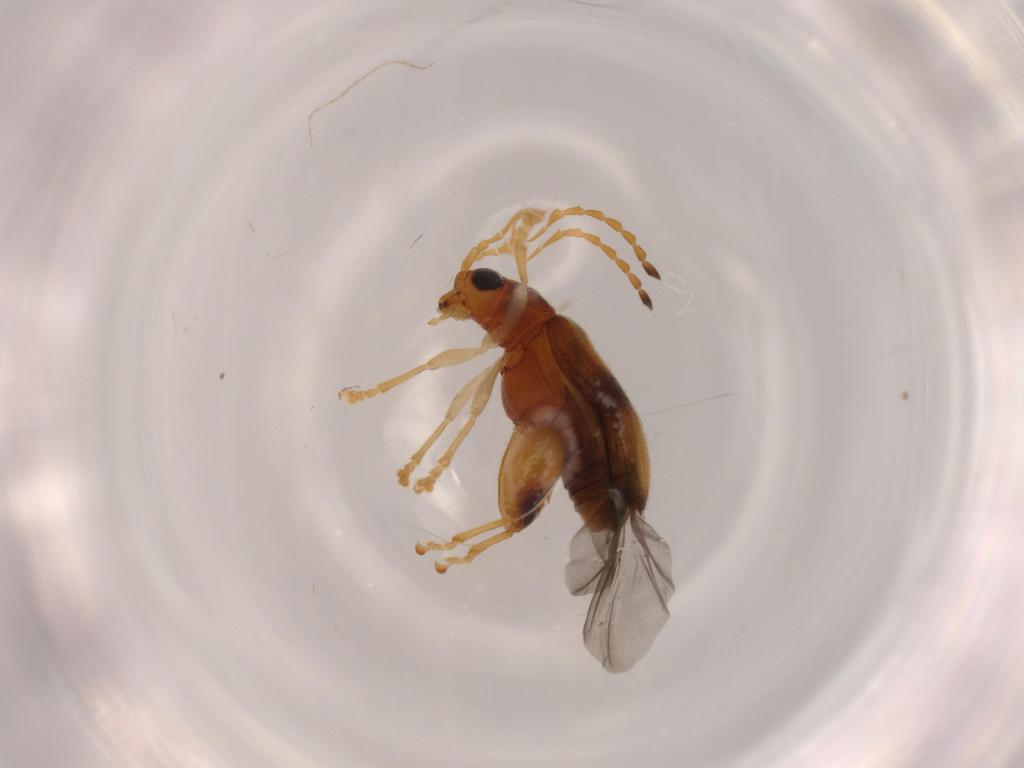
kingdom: Animalia
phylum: Arthropoda
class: Insecta
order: Coleoptera
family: Chrysomelidae
